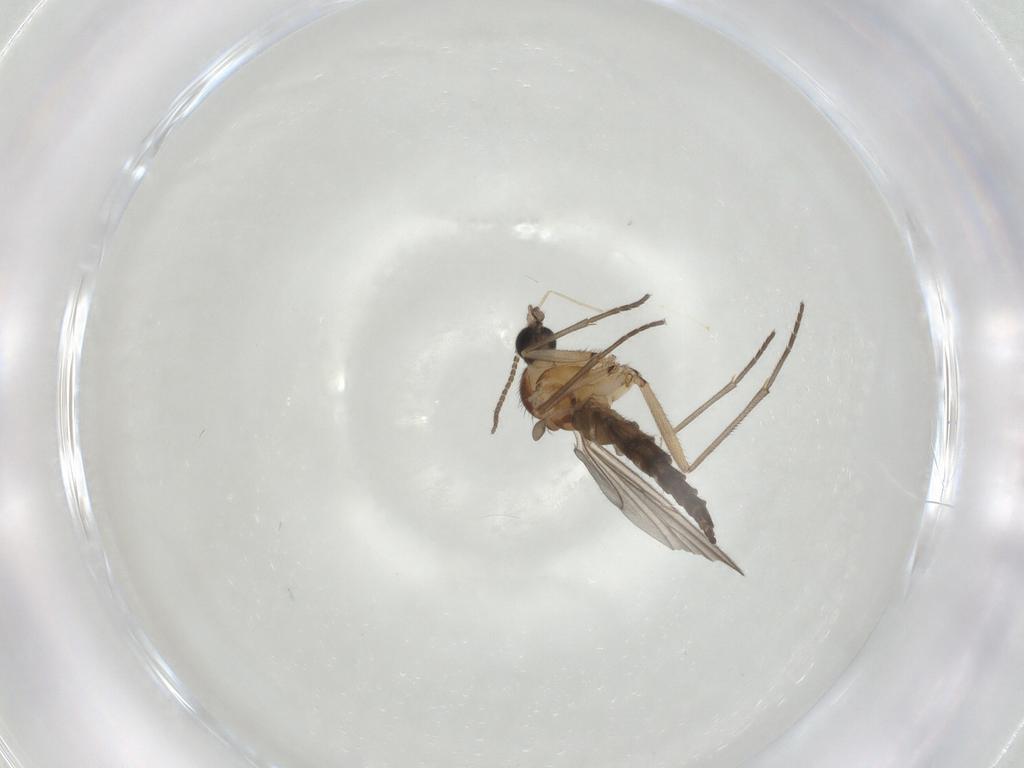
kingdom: Animalia
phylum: Arthropoda
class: Insecta
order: Diptera
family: Sciaridae
